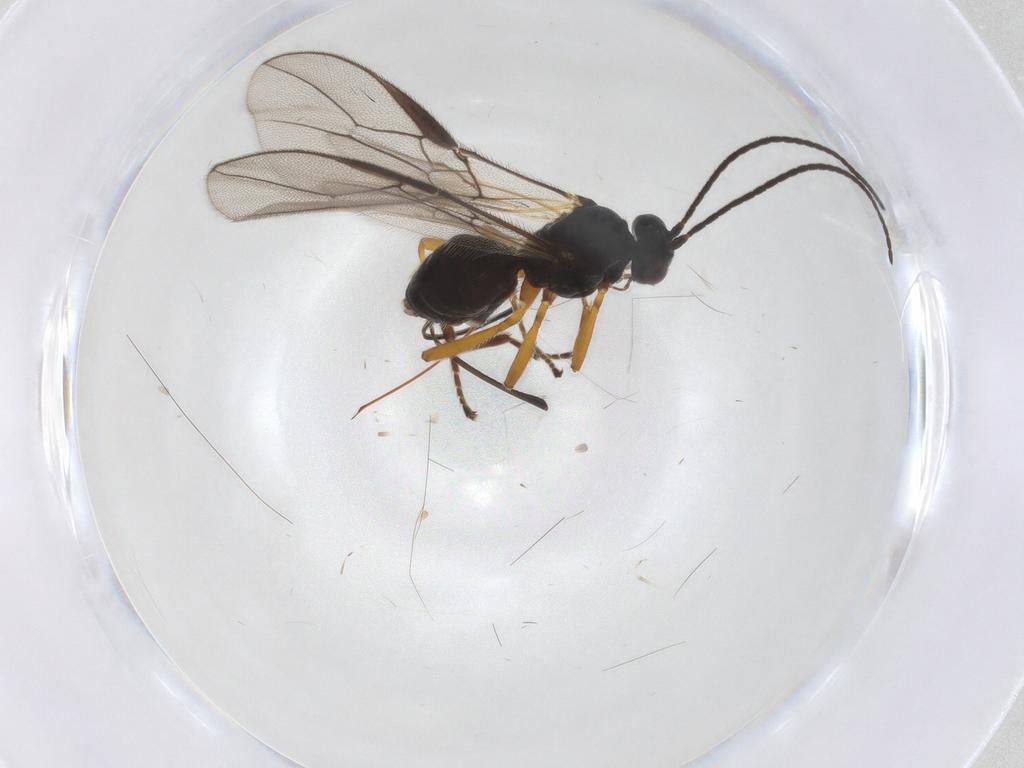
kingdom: Animalia
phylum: Arthropoda
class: Insecta
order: Hymenoptera
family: Braconidae
